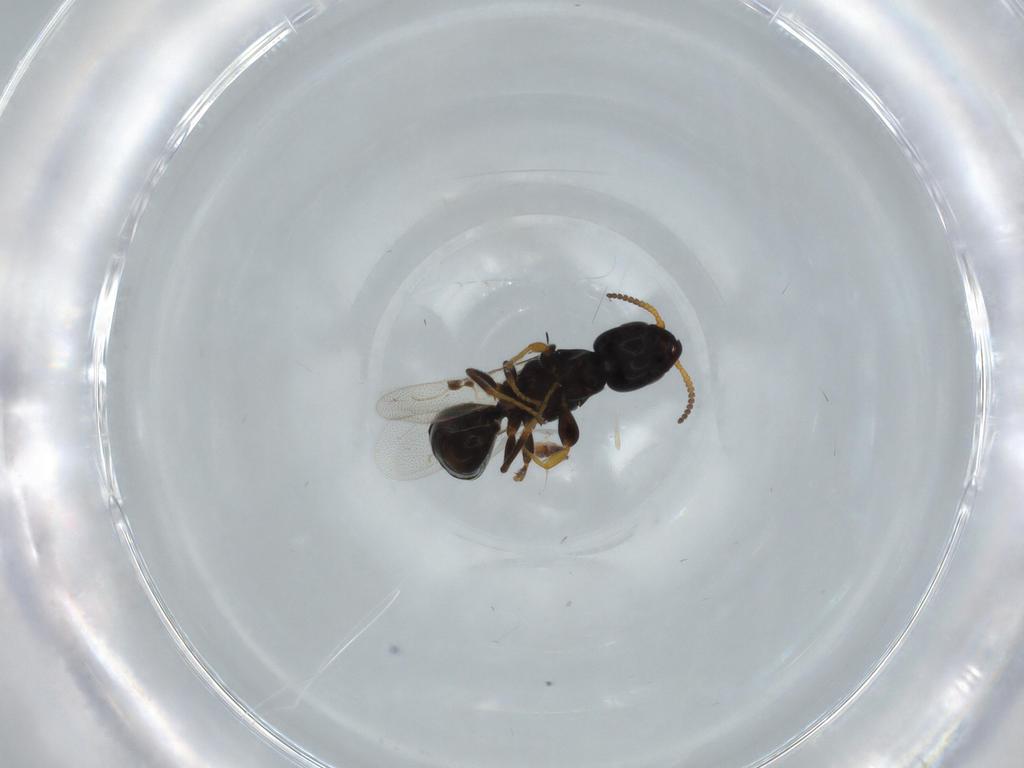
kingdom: Animalia
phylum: Arthropoda
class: Insecta
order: Hymenoptera
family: Bethylidae
